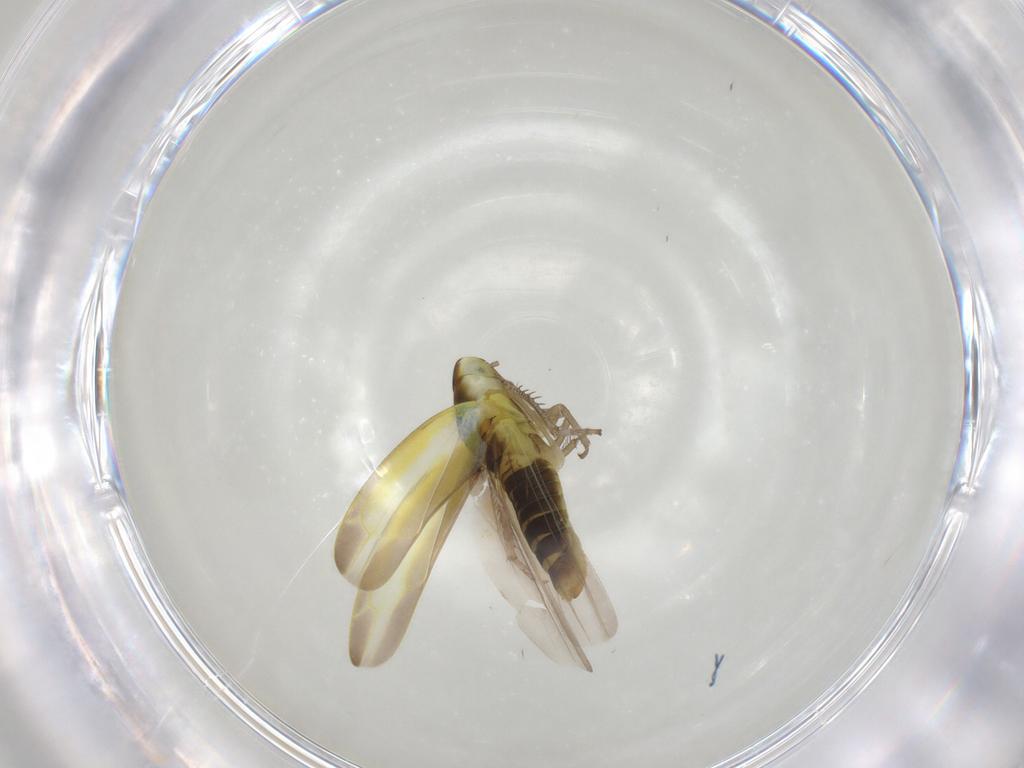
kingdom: Animalia
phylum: Arthropoda
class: Insecta
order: Hemiptera
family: Cicadellidae
